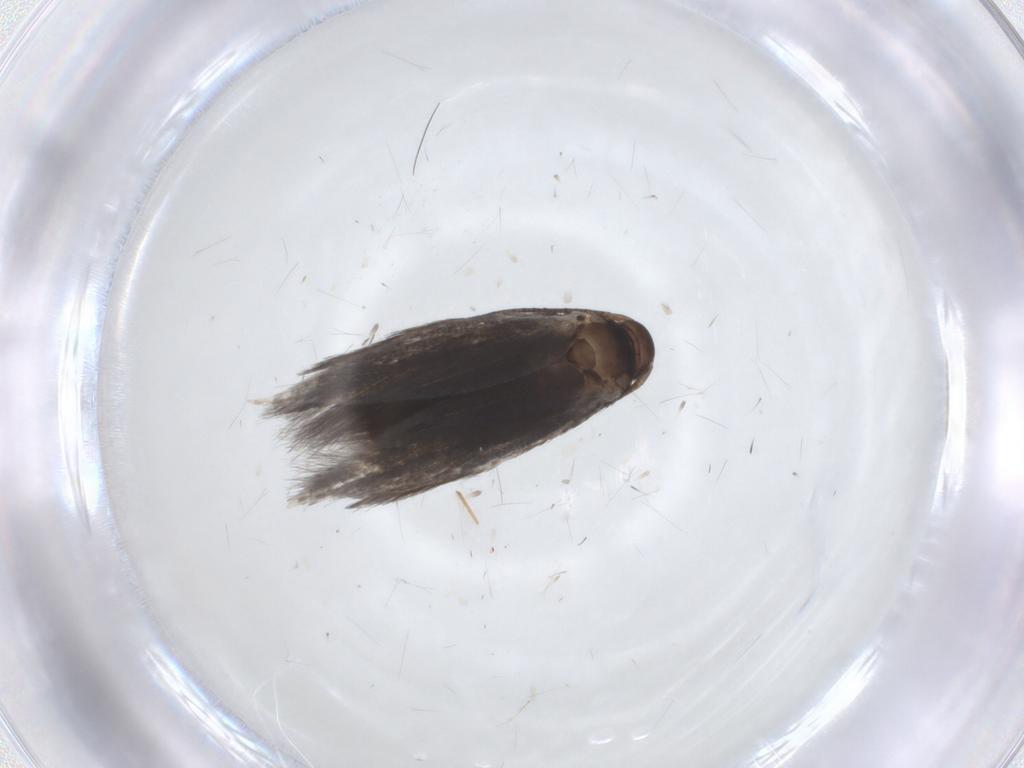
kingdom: Animalia
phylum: Arthropoda
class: Insecta
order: Lepidoptera
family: Elachistidae
